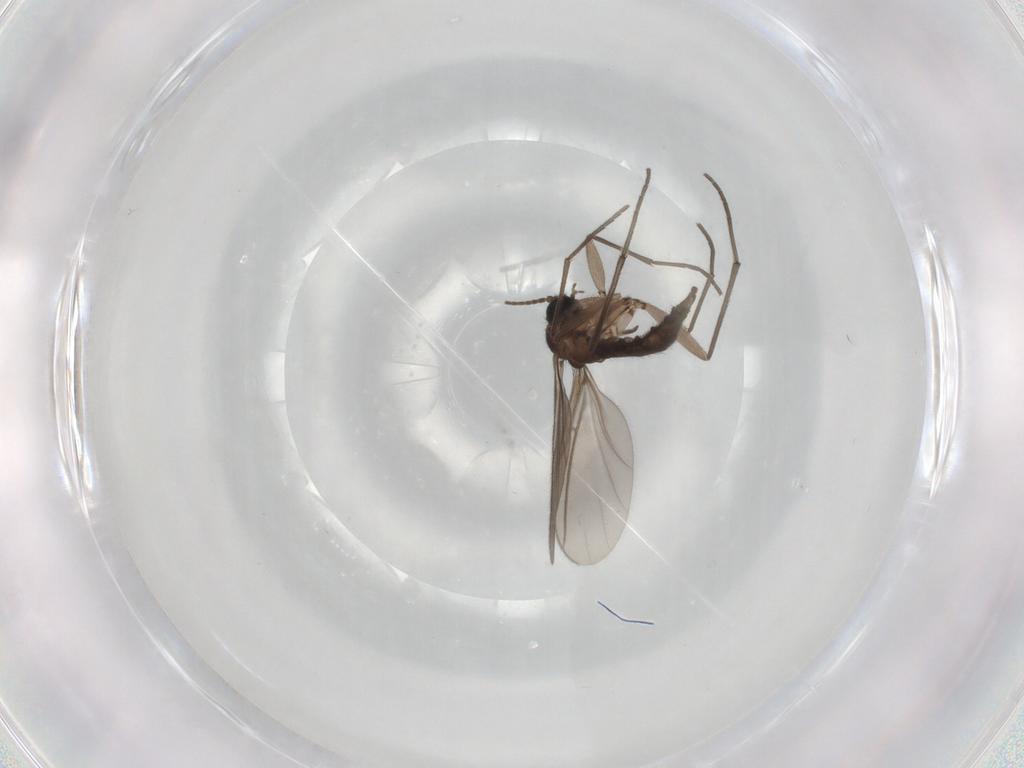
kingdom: Animalia
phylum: Arthropoda
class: Insecta
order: Diptera
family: Sciaridae
